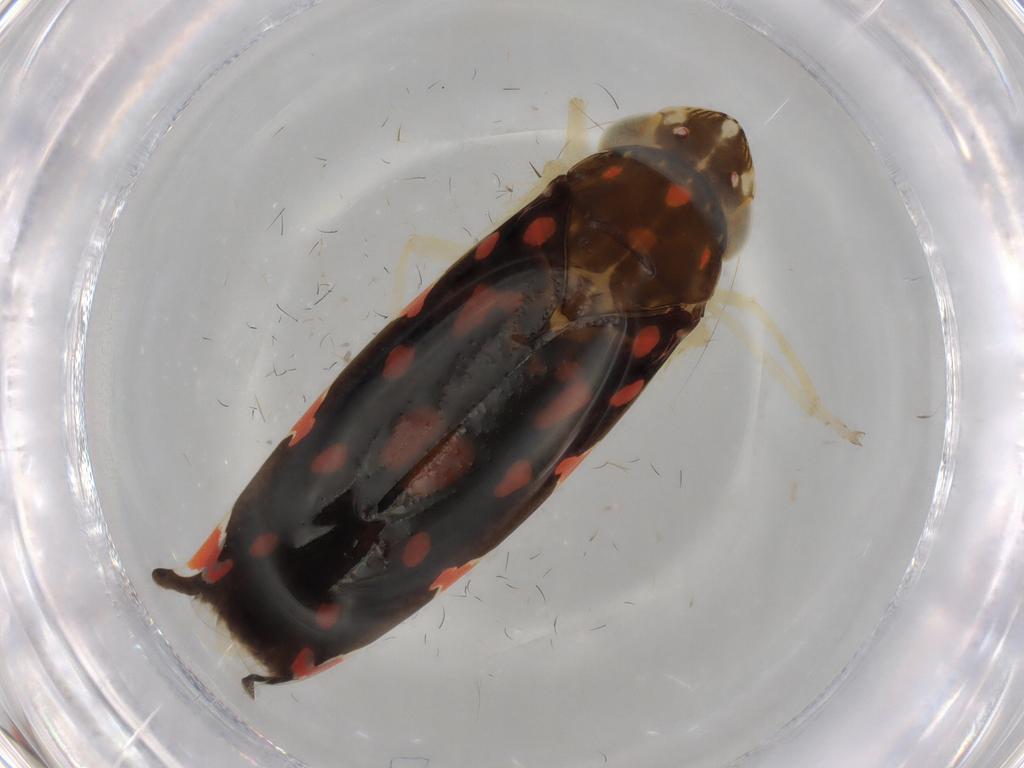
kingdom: Animalia
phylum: Arthropoda
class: Insecta
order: Hemiptera
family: Cicadellidae
